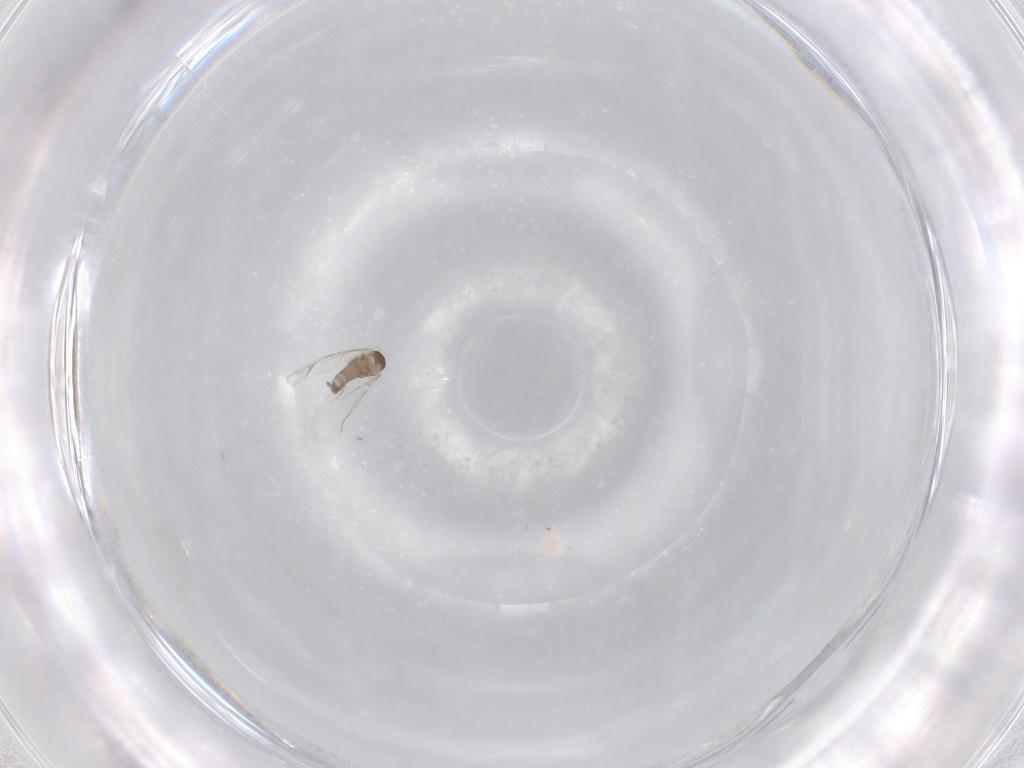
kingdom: Animalia
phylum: Arthropoda
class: Insecta
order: Diptera
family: Cecidomyiidae
